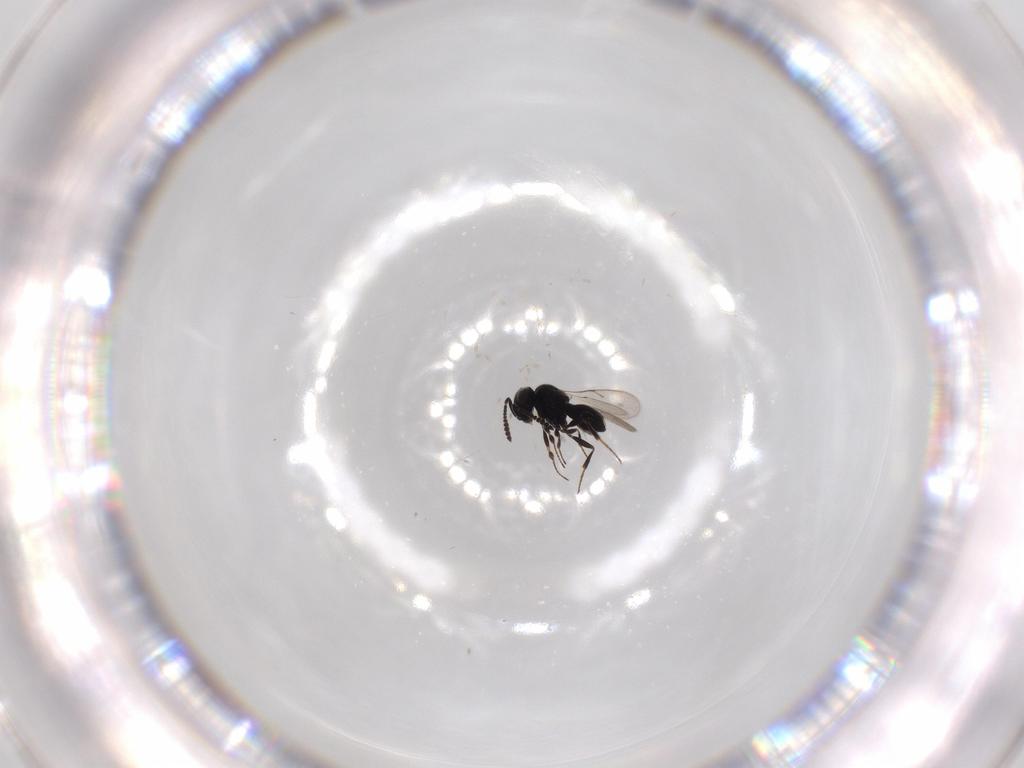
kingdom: Animalia
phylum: Arthropoda
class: Insecta
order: Hymenoptera
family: Scelionidae
